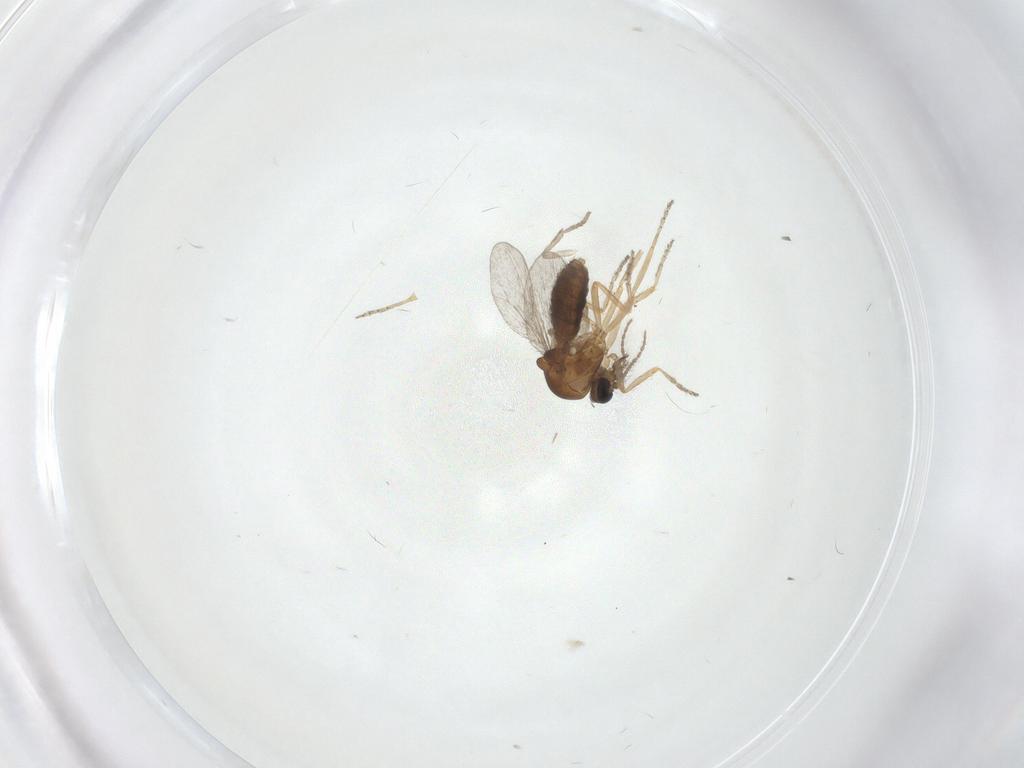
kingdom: Animalia
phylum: Arthropoda
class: Insecta
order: Diptera
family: Ceratopogonidae
